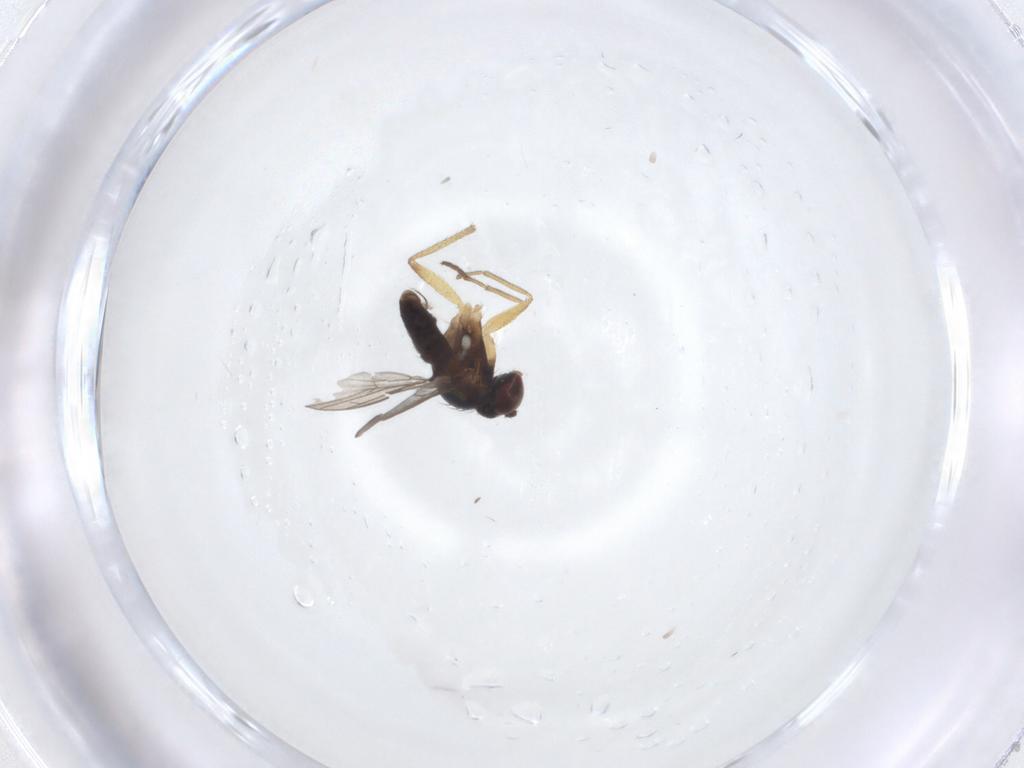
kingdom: Animalia
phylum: Arthropoda
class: Insecta
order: Diptera
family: Dolichopodidae
